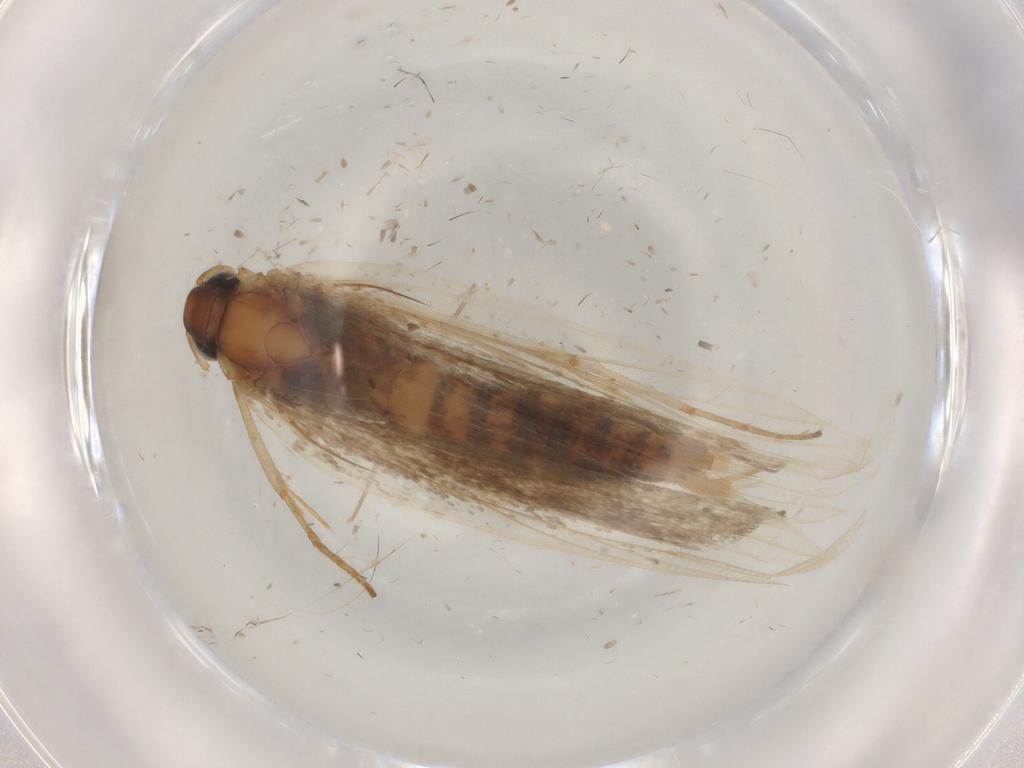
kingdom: Animalia
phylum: Arthropoda
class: Insecta
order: Lepidoptera
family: Gelechiidae
